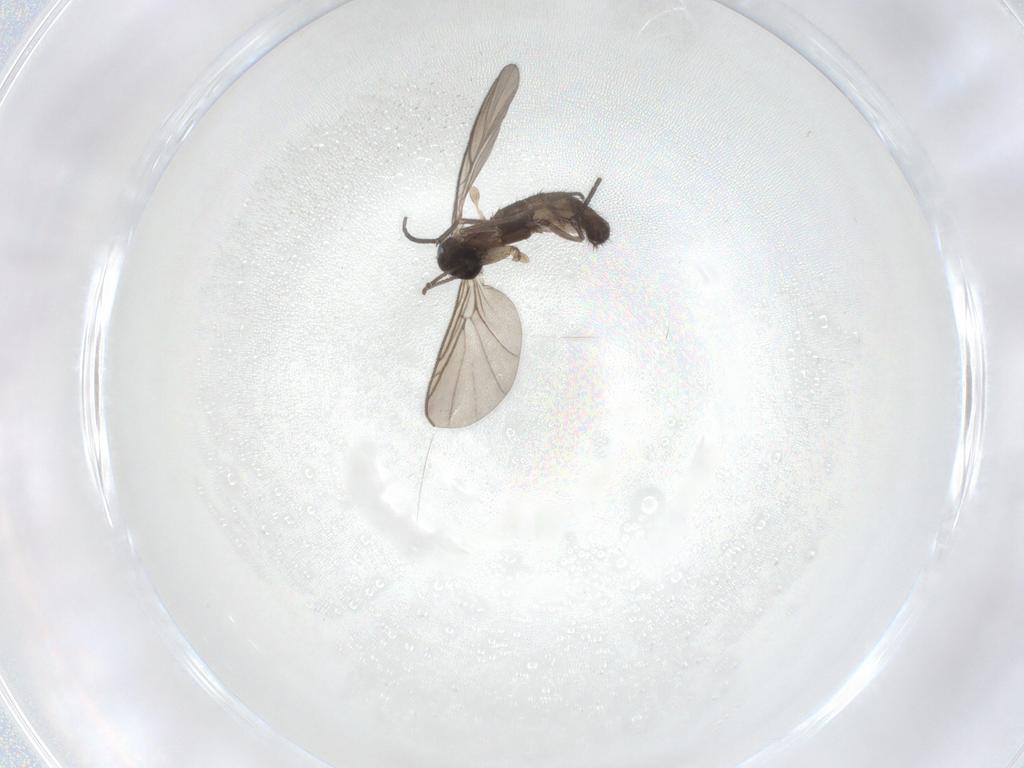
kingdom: Animalia
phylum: Arthropoda
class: Insecta
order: Diptera
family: Keroplatidae
